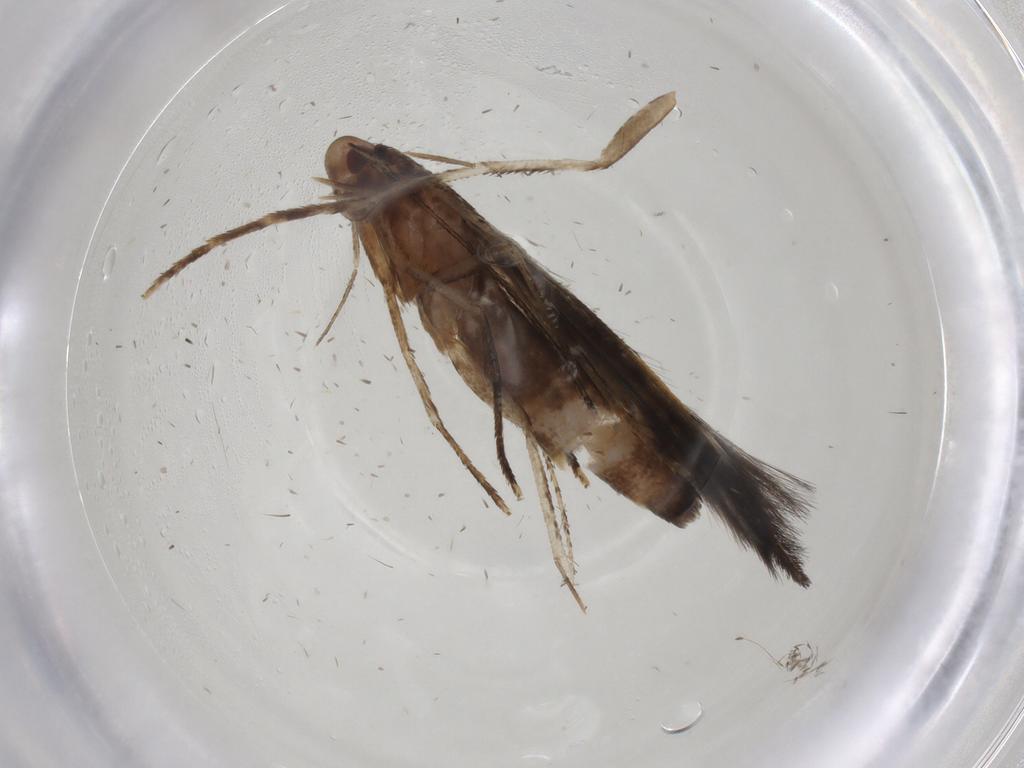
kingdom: Animalia
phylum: Arthropoda
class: Insecta
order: Lepidoptera
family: Cosmopterigidae
